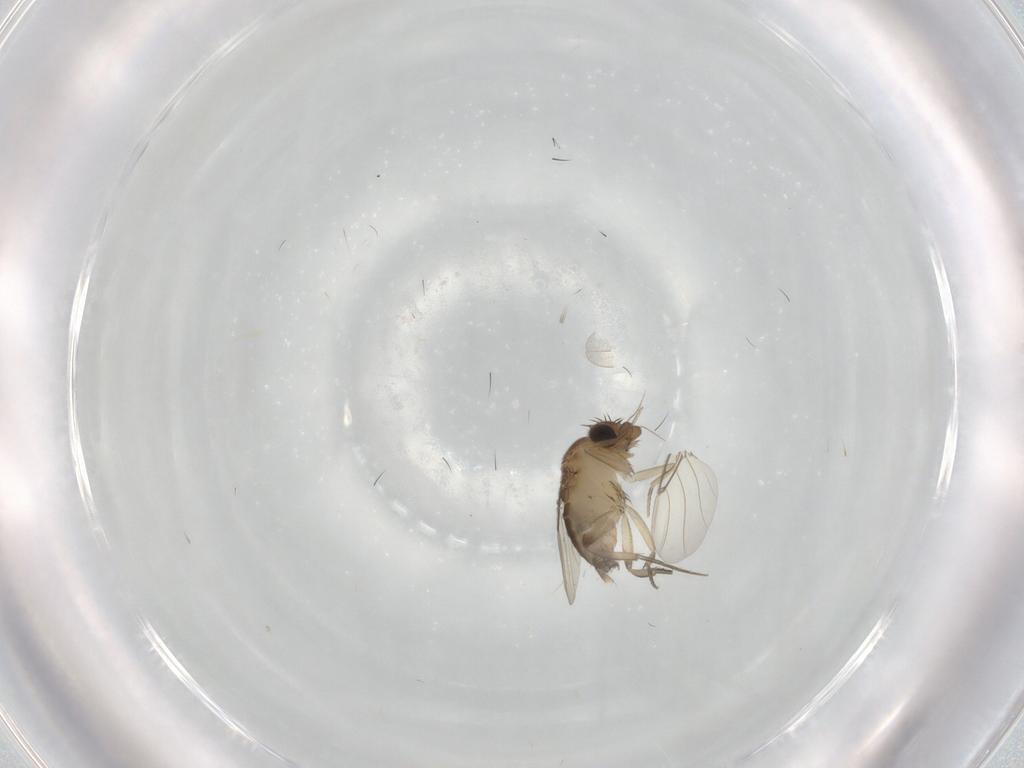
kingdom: Animalia
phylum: Arthropoda
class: Insecta
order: Diptera
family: Phoridae
